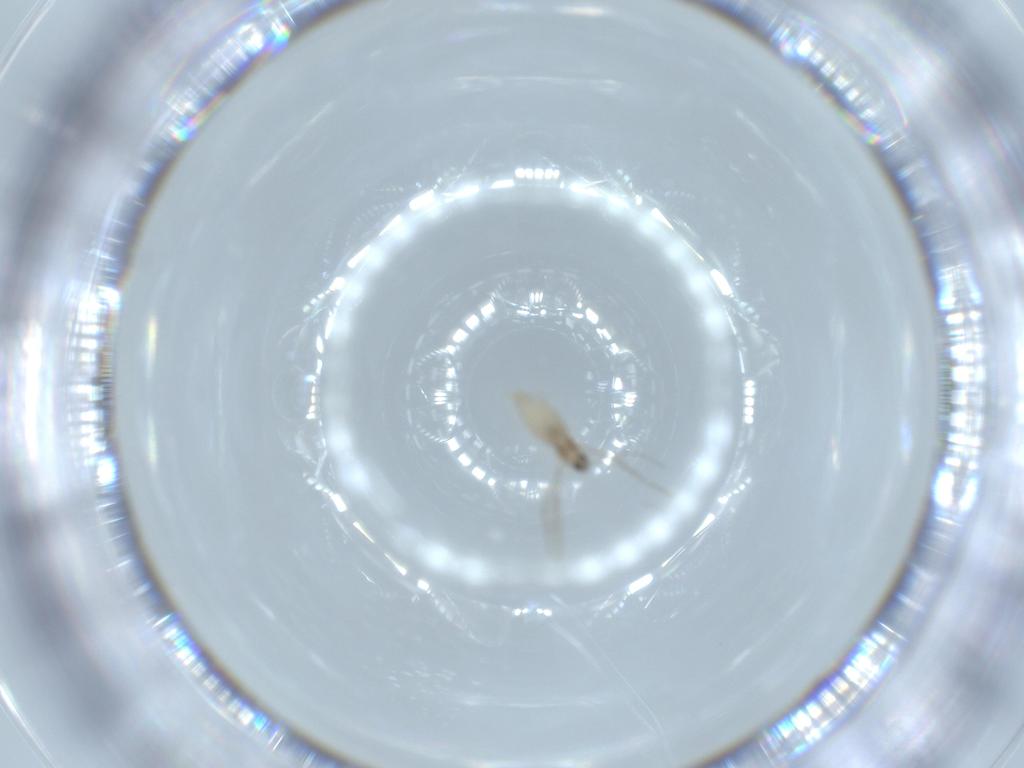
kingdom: Animalia
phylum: Arthropoda
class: Insecta
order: Diptera
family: Cecidomyiidae
